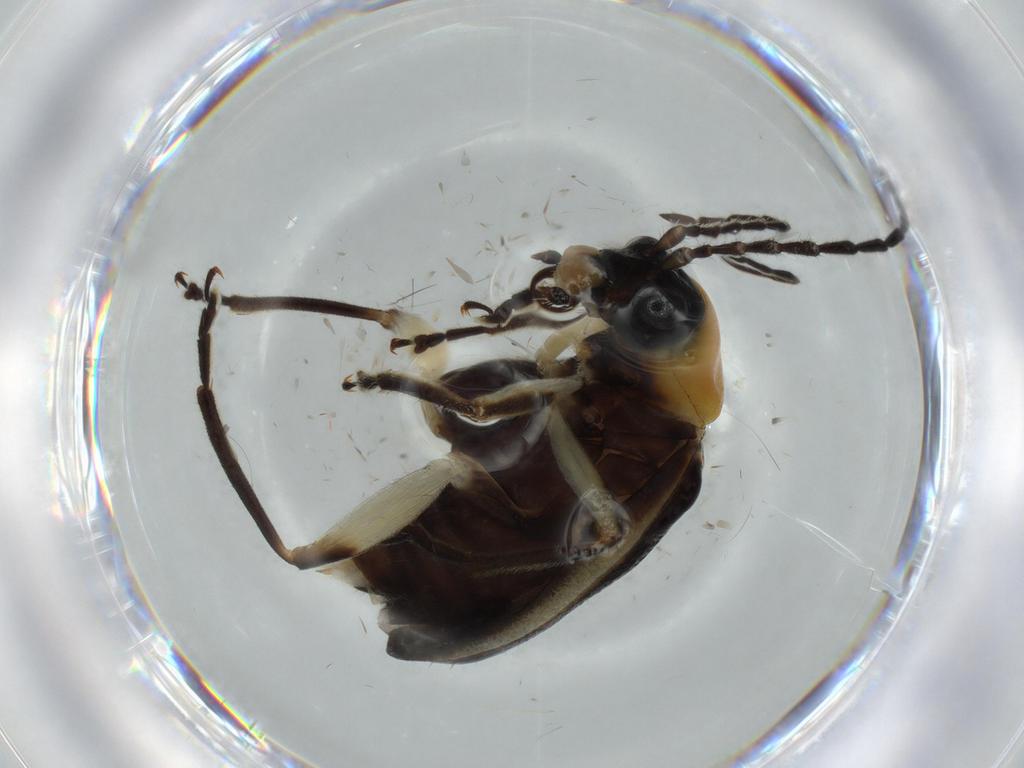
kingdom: Animalia
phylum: Arthropoda
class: Insecta
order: Coleoptera
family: Chrysomelidae
